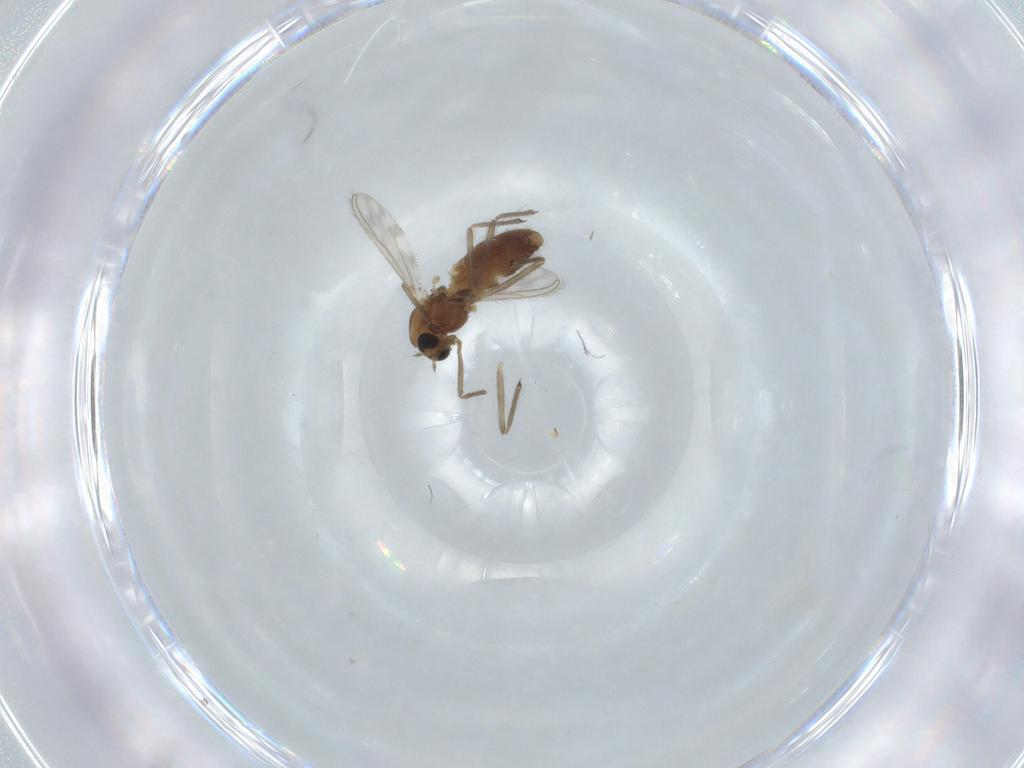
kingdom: Animalia
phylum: Arthropoda
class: Insecta
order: Diptera
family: Chironomidae
